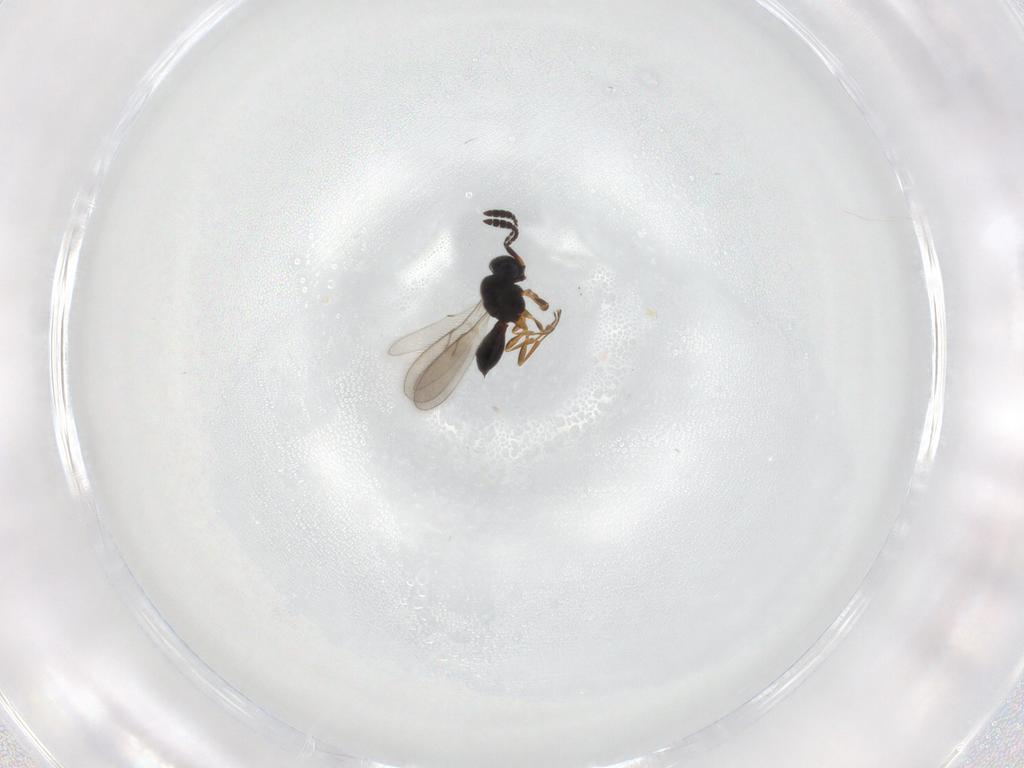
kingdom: Animalia
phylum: Arthropoda
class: Insecta
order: Hymenoptera
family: Scelionidae
